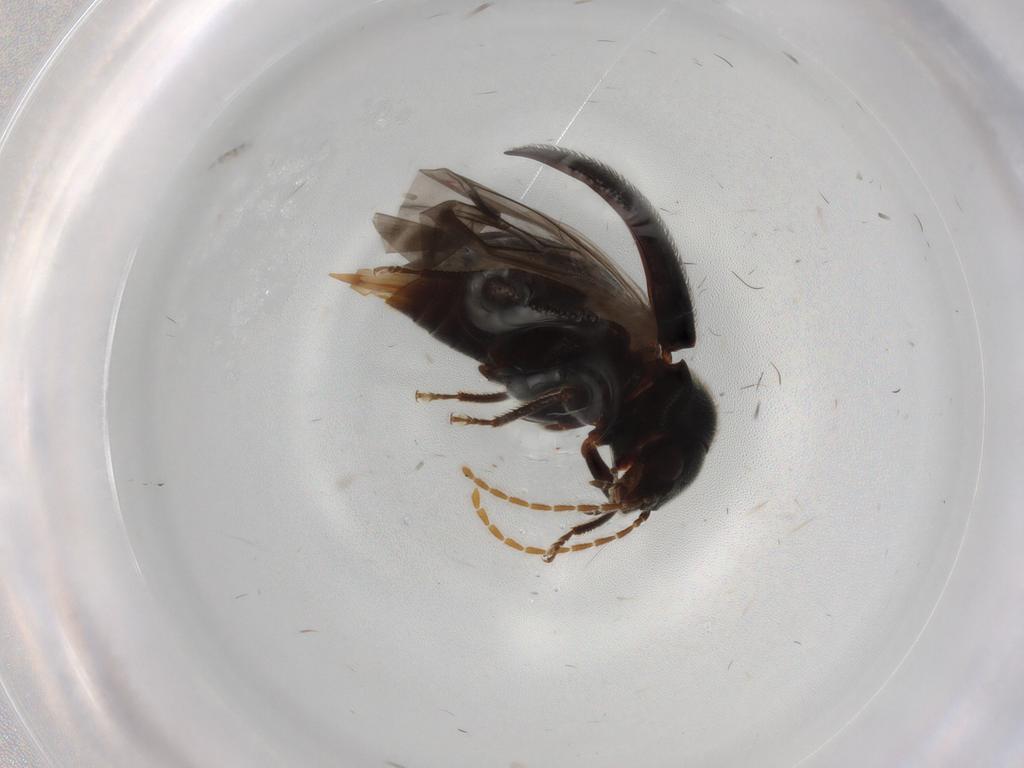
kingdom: Animalia
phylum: Arthropoda
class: Insecta
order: Coleoptera
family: Ptilodactylidae
